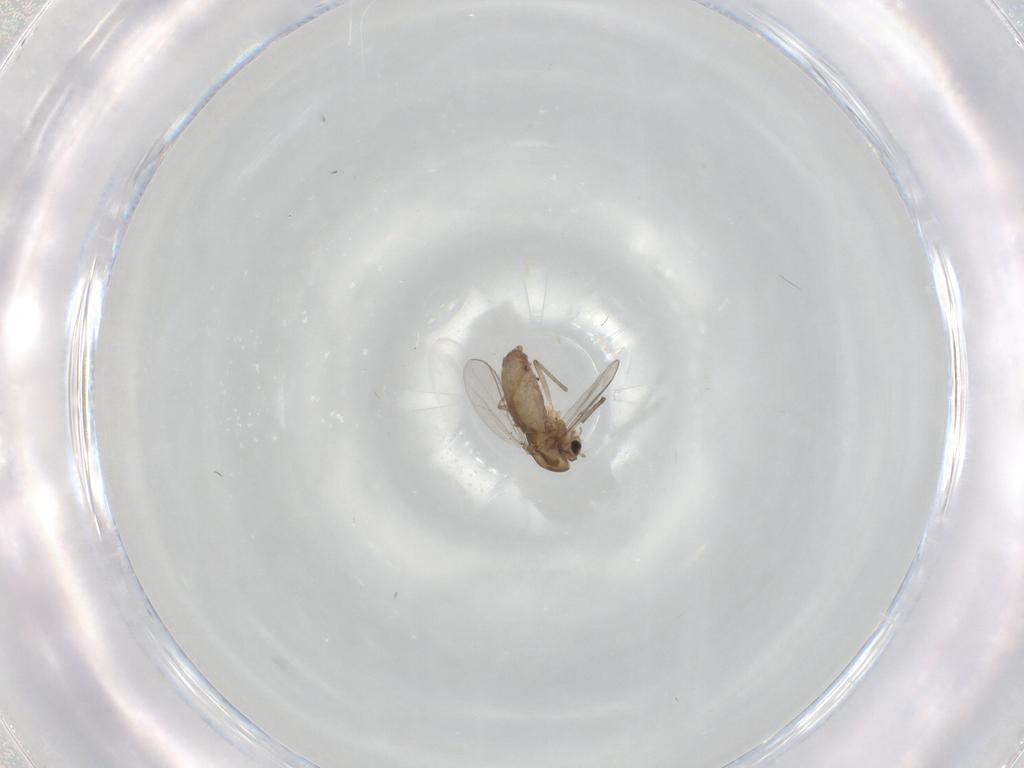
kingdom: Animalia
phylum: Arthropoda
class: Insecta
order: Diptera
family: Chironomidae
